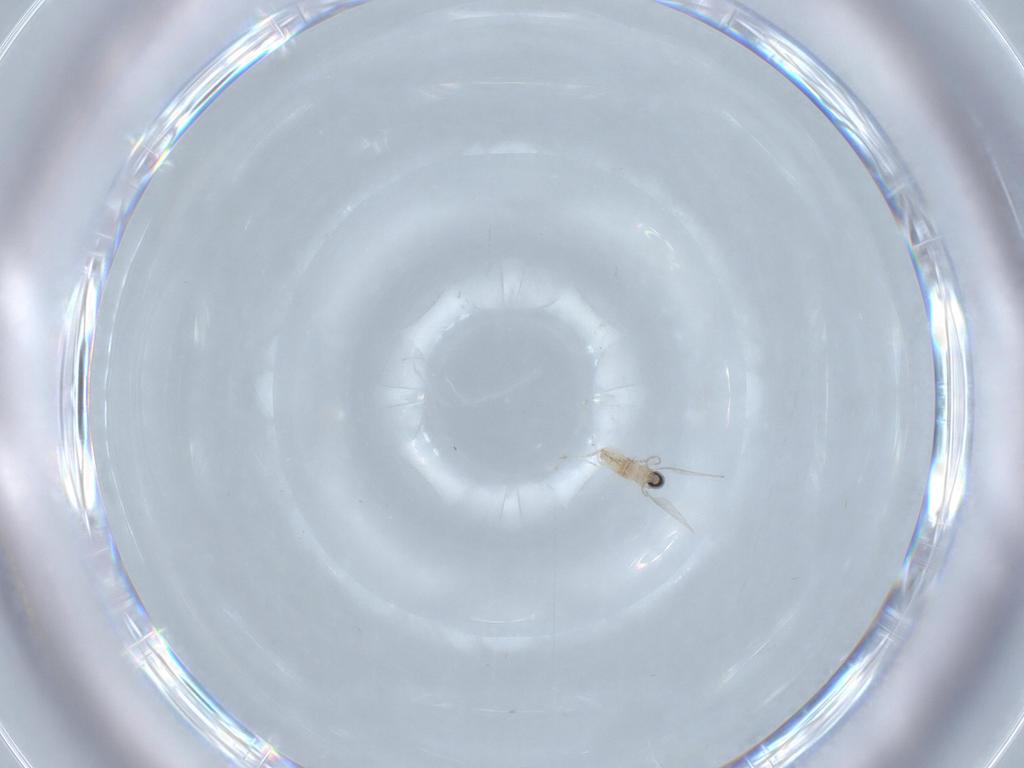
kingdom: Animalia
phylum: Arthropoda
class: Insecta
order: Diptera
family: Cecidomyiidae
